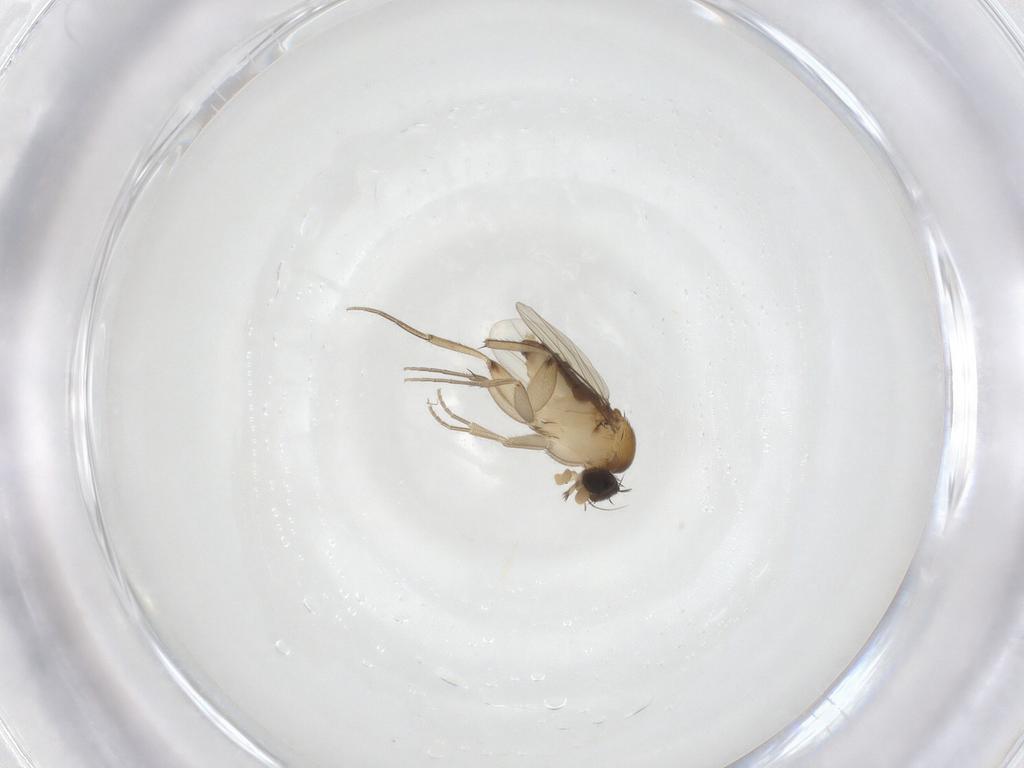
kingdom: Animalia
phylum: Arthropoda
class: Insecta
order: Diptera
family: Phoridae
